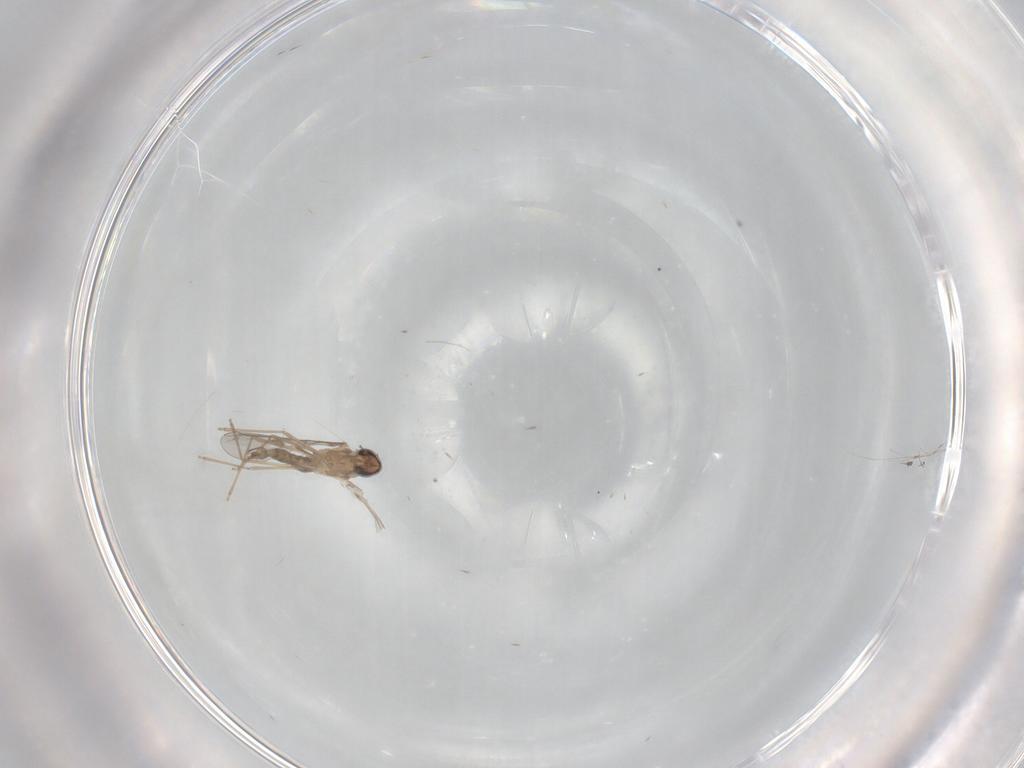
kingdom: Animalia
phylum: Arthropoda
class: Insecta
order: Diptera
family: Cecidomyiidae
